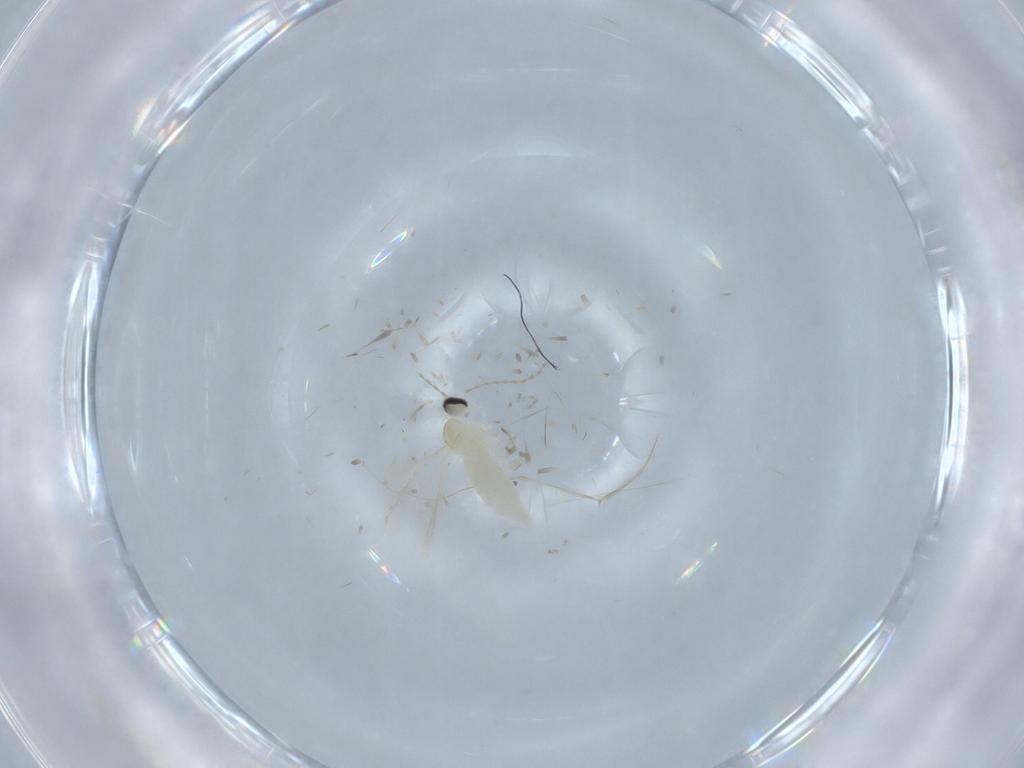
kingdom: Animalia
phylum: Arthropoda
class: Insecta
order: Diptera
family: Cecidomyiidae
